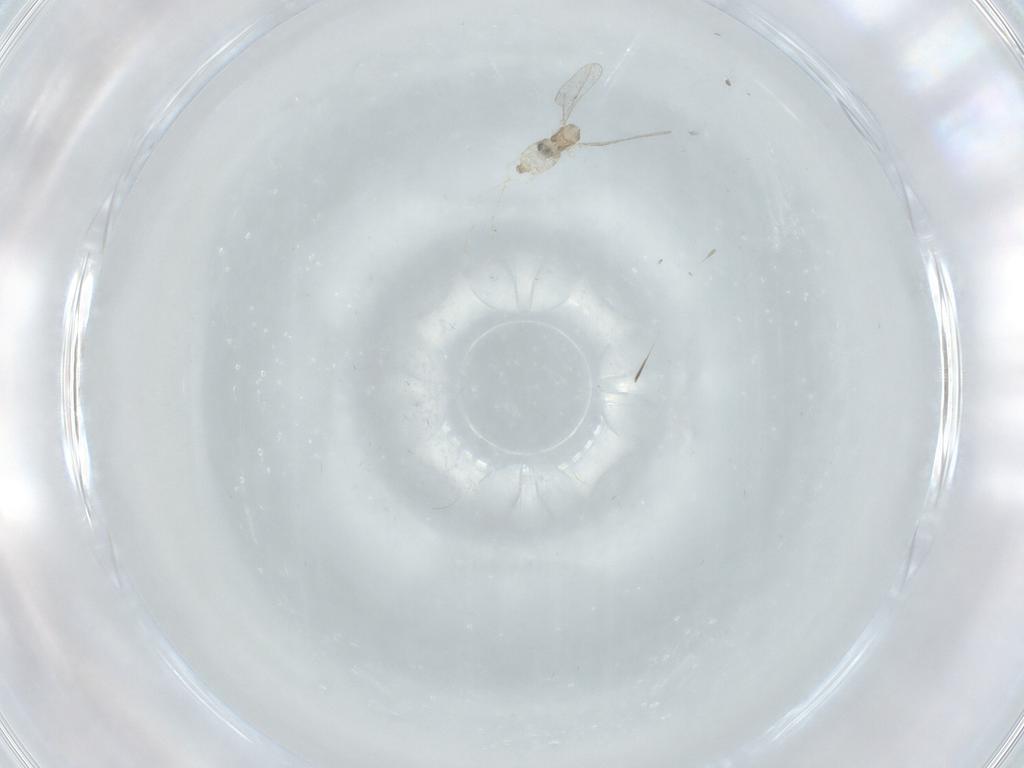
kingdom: Animalia
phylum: Arthropoda
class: Insecta
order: Diptera
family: Cecidomyiidae
